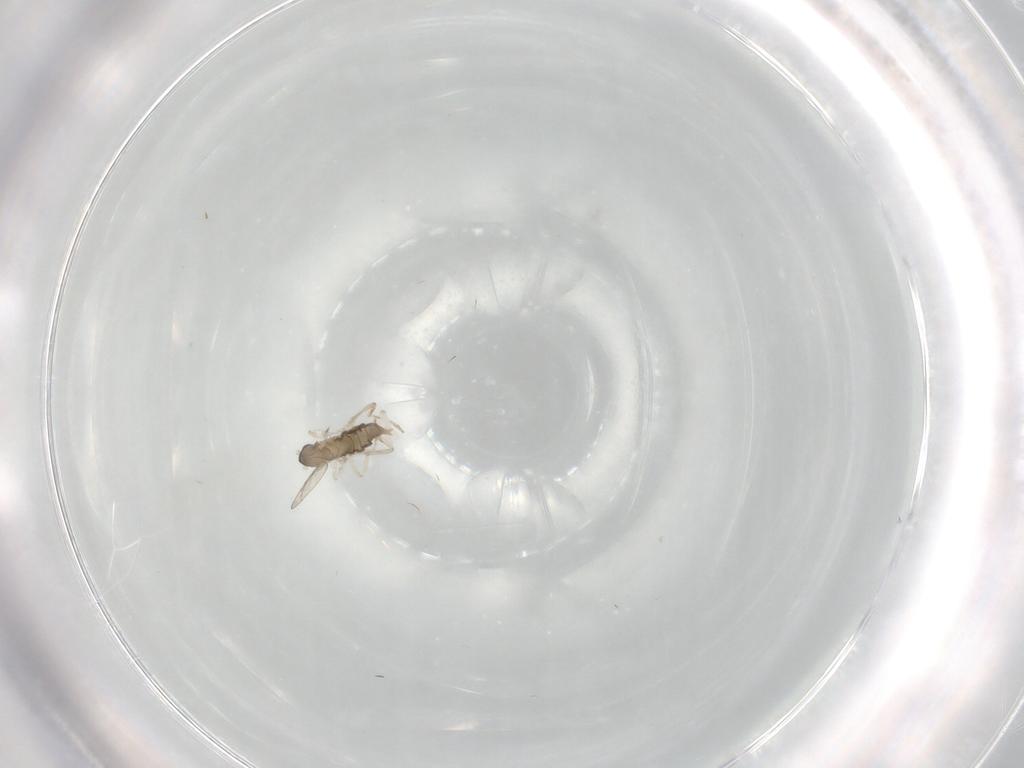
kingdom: Animalia
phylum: Arthropoda
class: Insecta
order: Diptera
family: Cecidomyiidae
